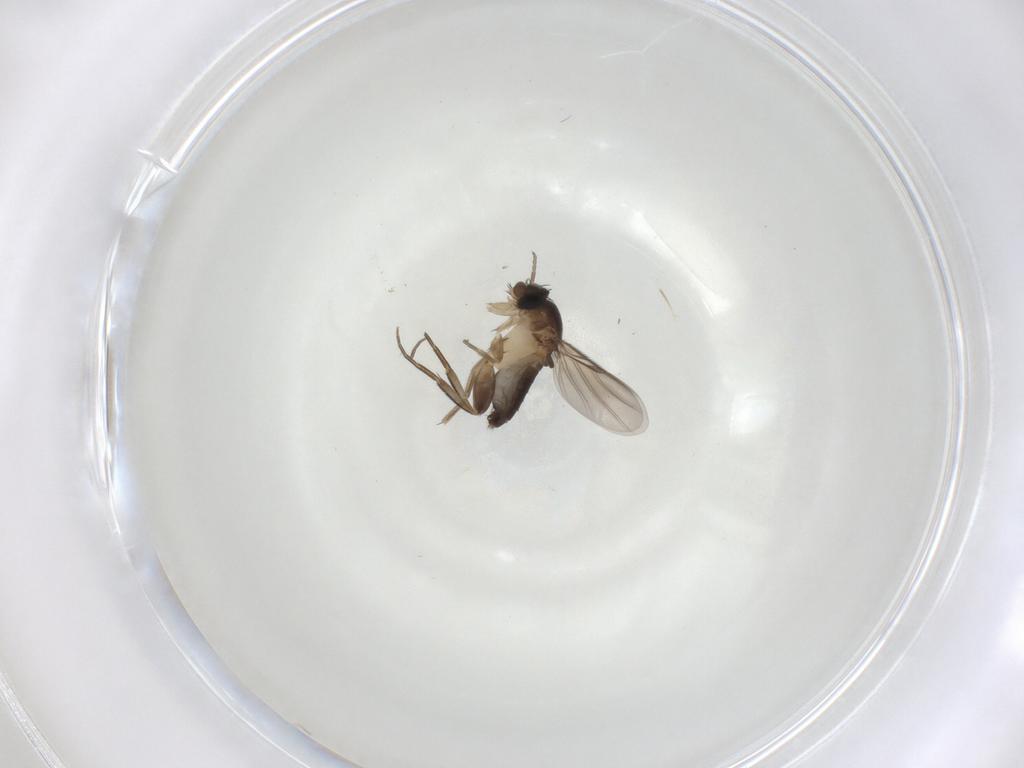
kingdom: Animalia
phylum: Arthropoda
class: Insecta
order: Diptera
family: Phoridae
